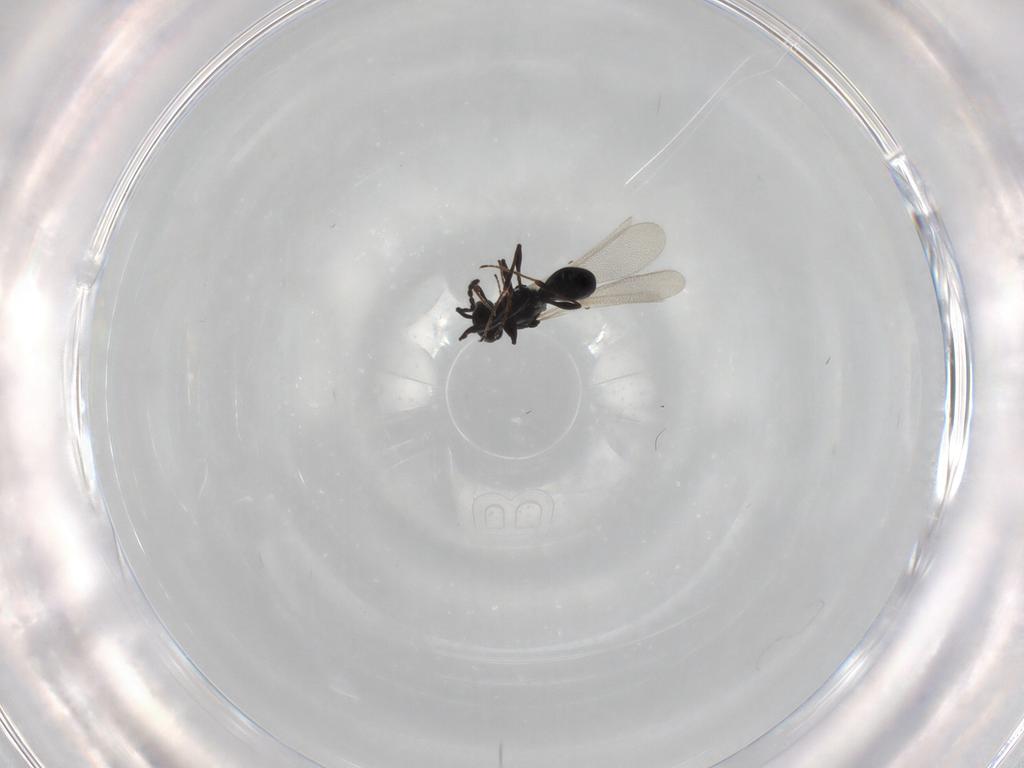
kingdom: Animalia
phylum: Arthropoda
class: Insecta
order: Hymenoptera
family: Platygastridae
